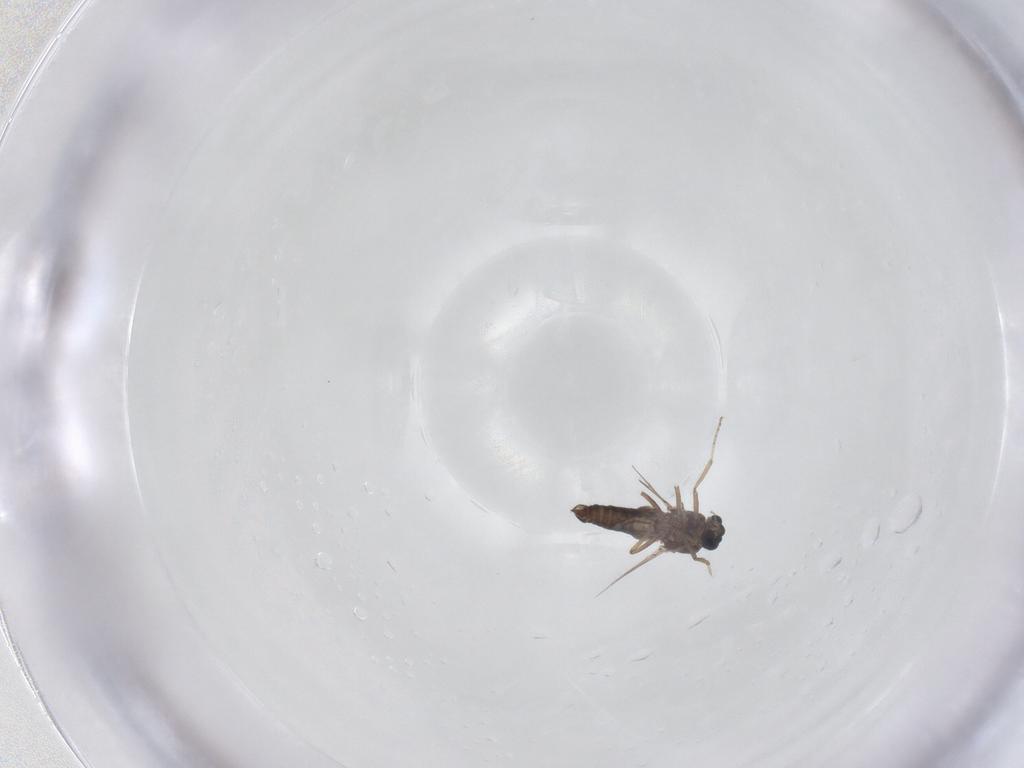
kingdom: Animalia
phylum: Arthropoda
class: Insecta
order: Diptera
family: Ceratopogonidae
